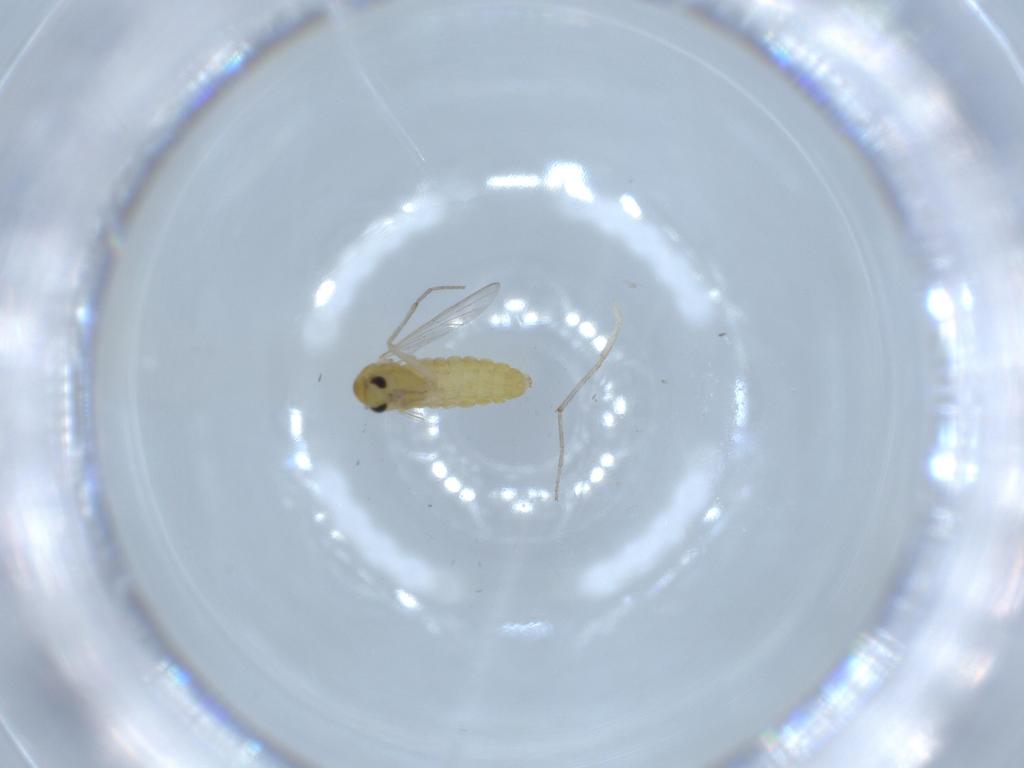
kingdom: Animalia
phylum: Arthropoda
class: Insecta
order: Diptera
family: Chironomidae
